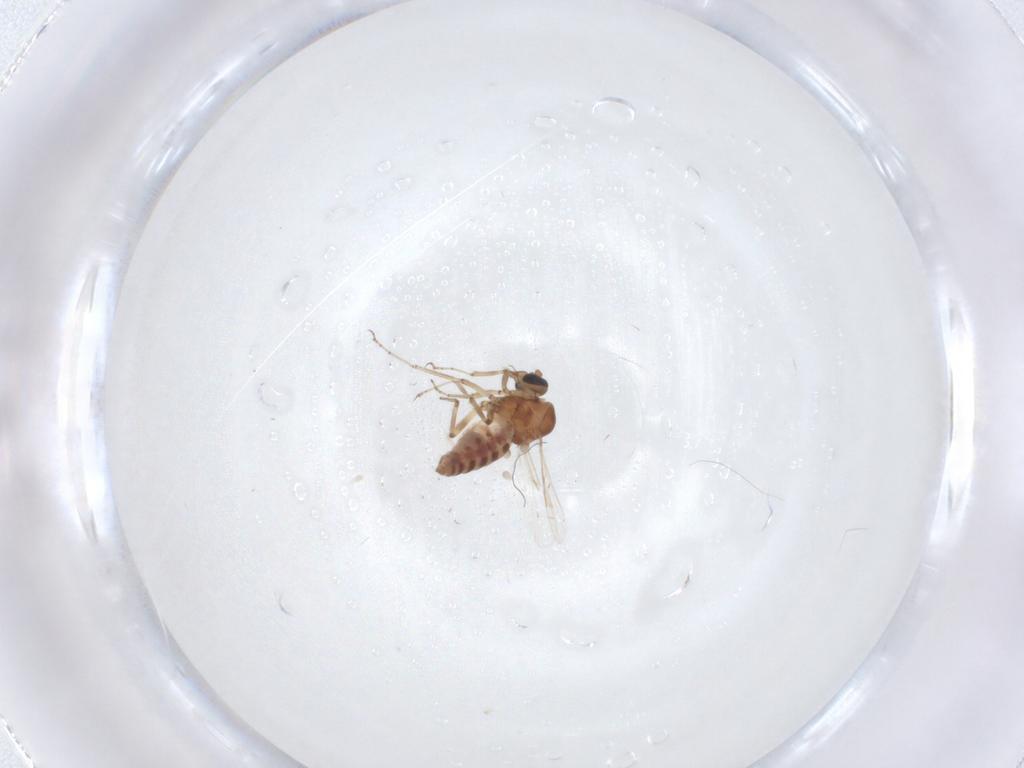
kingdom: Animalia
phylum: Arthropoda
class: Insecta
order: Diptera
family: Ceratopogonidae
